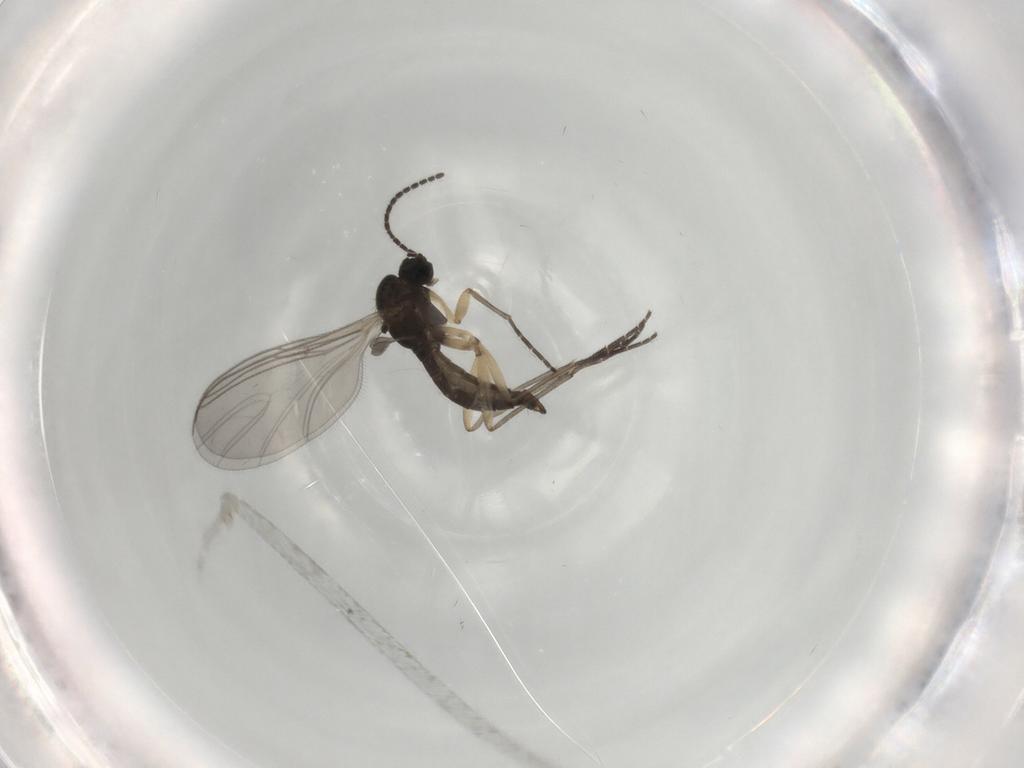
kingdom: Animalia
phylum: Arthropoda
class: Insecta
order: Diptera
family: Sciaridae
